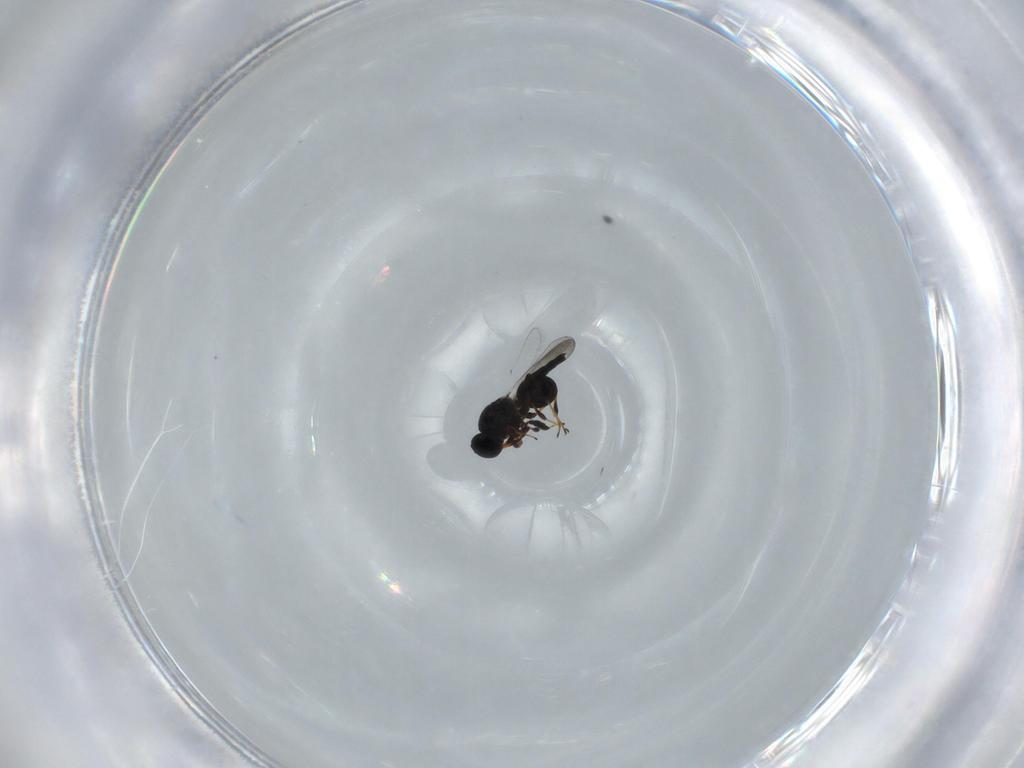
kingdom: Animalia
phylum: Arthropoda
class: Insecta
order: Hymenoptera
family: Platygastridae
